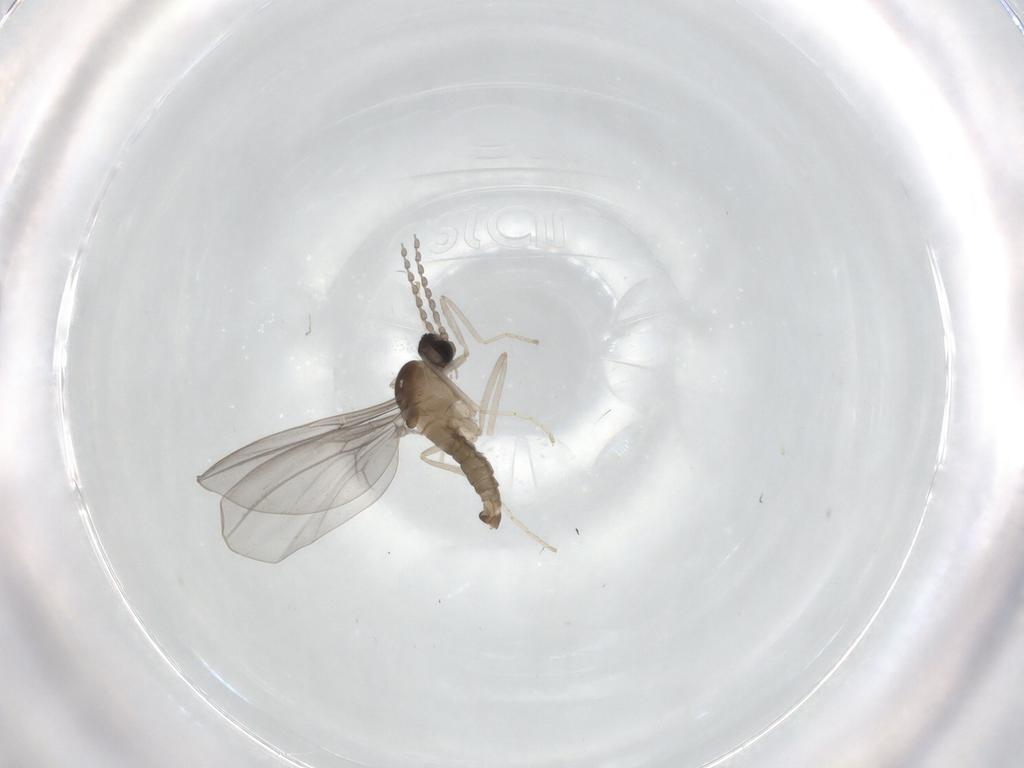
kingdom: Animalia
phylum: Arthropoda
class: Insecta
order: Diptera
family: Cecidomyiidae
